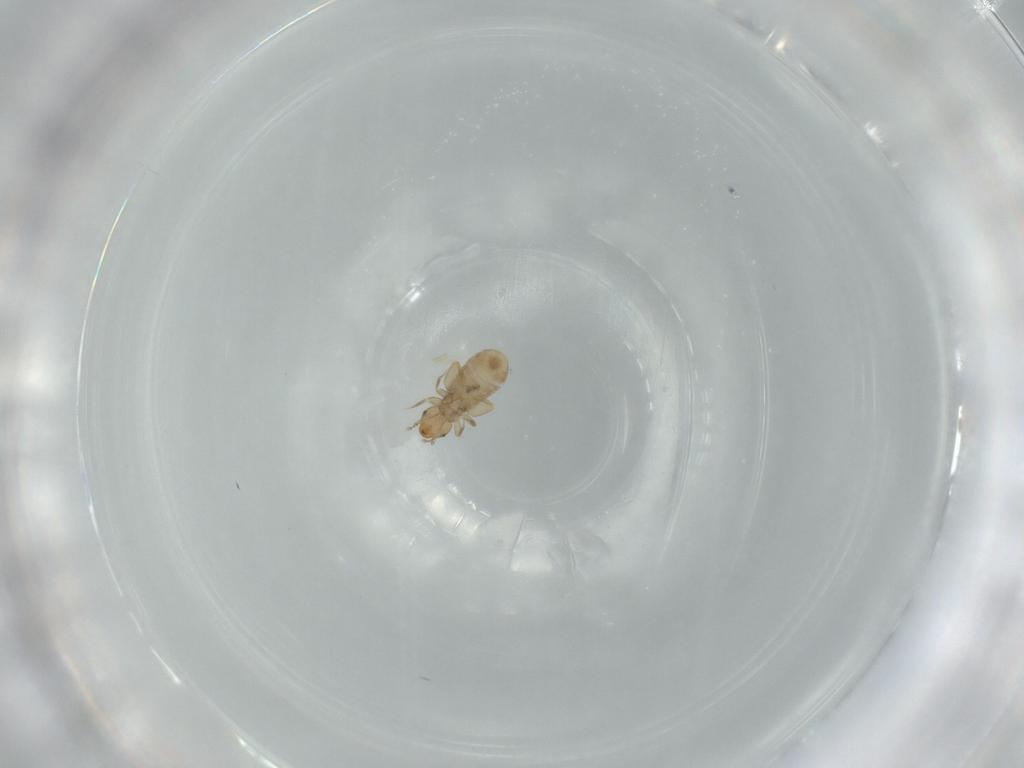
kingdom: Animalia
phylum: Arthropoda
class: Insecta
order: Psocodea
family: Liposcelididae
